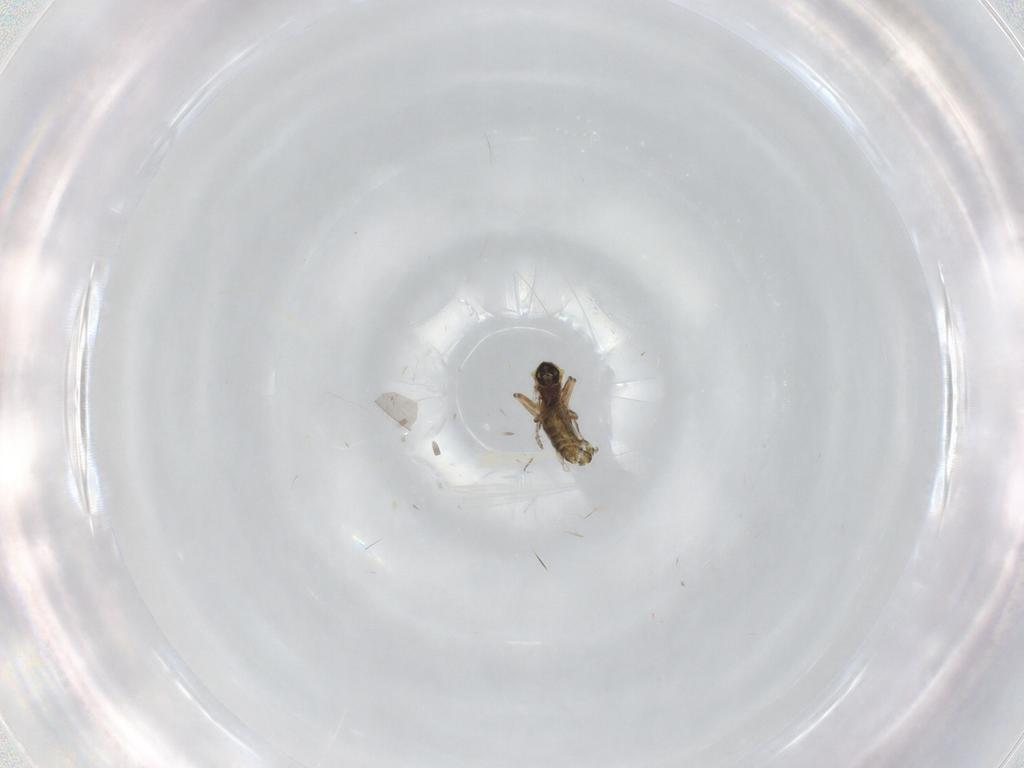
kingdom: Animalia
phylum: Arthropoda
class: Insecta
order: Diptera
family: Ceratopogonidae
